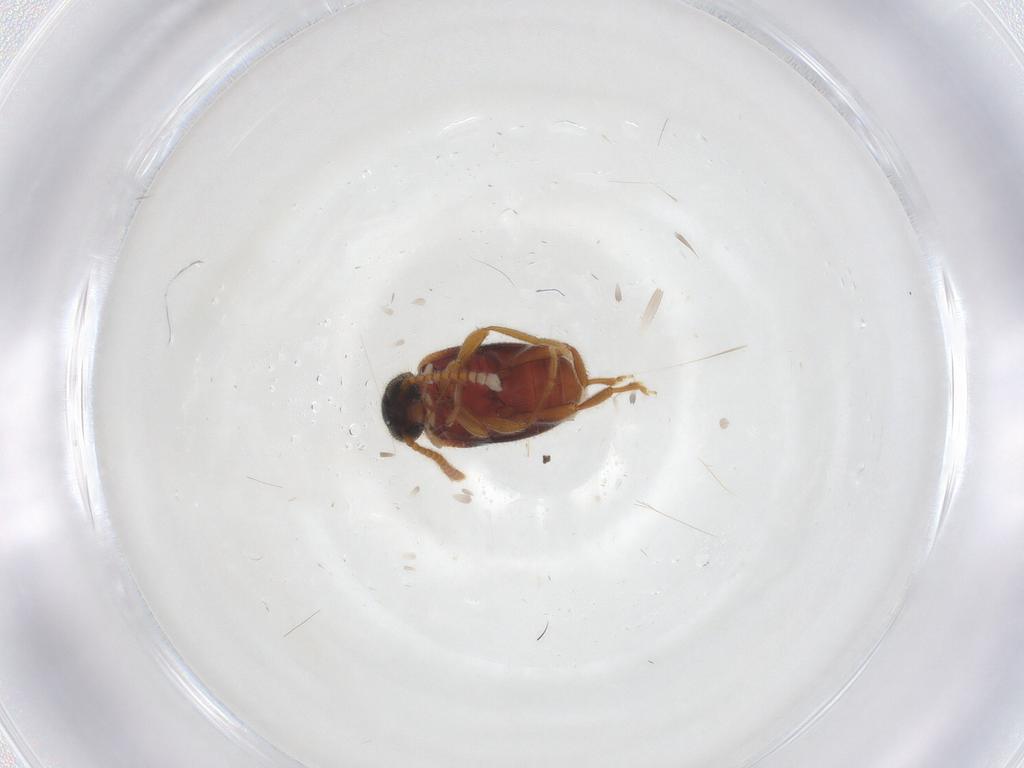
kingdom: Animalia
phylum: Arthropoda
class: Insecta
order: Coleoptera
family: Aderidae
